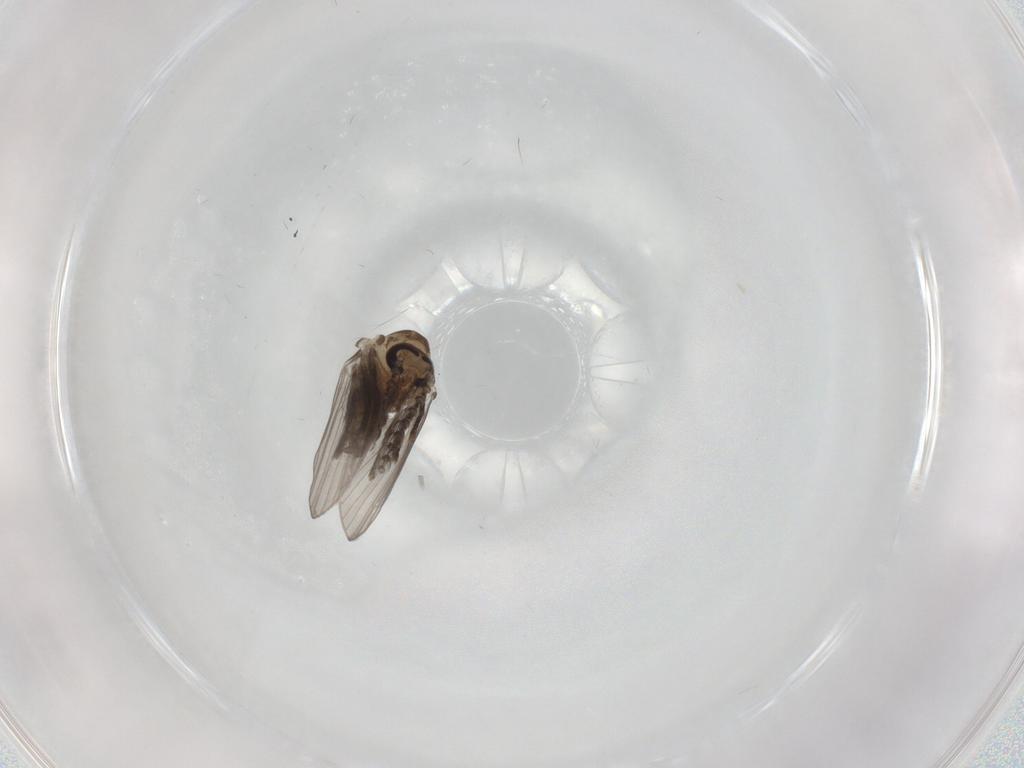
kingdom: Animalia
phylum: Arthropoda
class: Insecta
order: Diptera
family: Psychodidae
